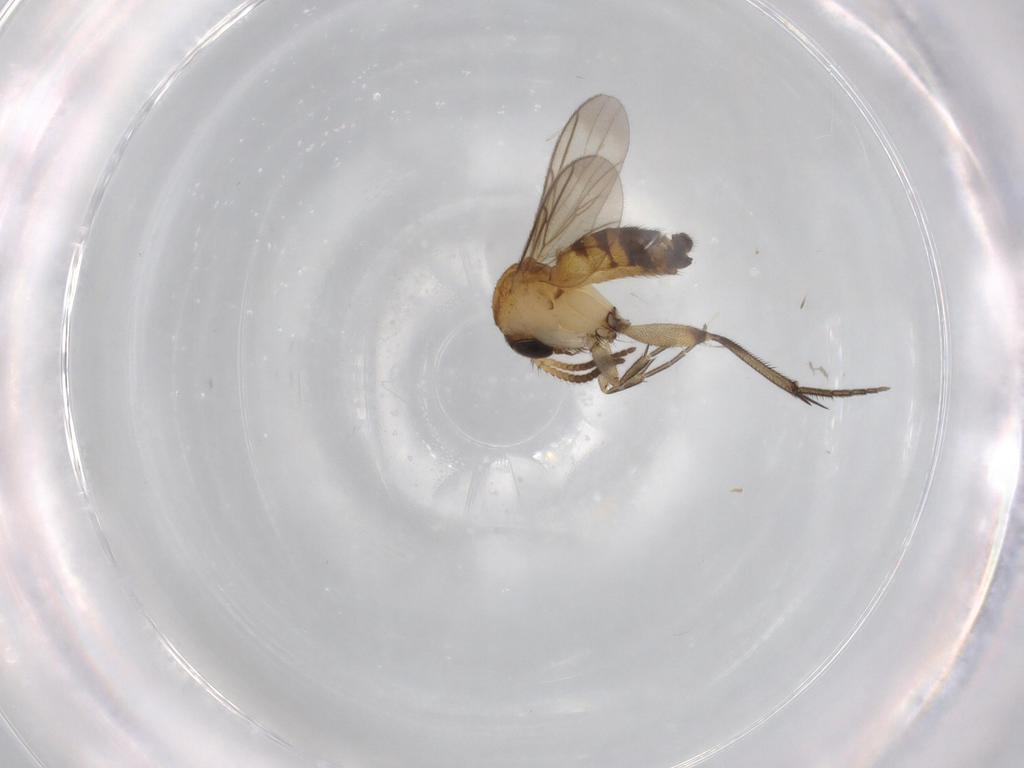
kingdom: Animalia
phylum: Arthropoda
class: Insecta
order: Diptera
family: Mycetophilidae
